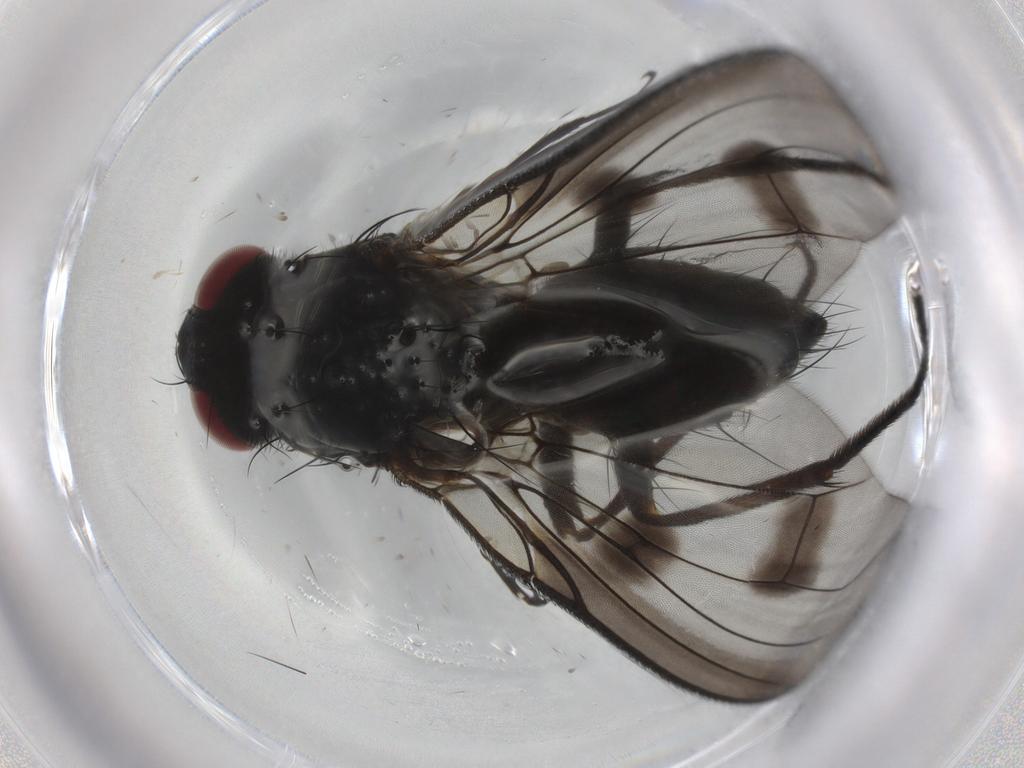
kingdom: Animalia
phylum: Arthropoda
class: Insecta
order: Diptera
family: Muscidae
